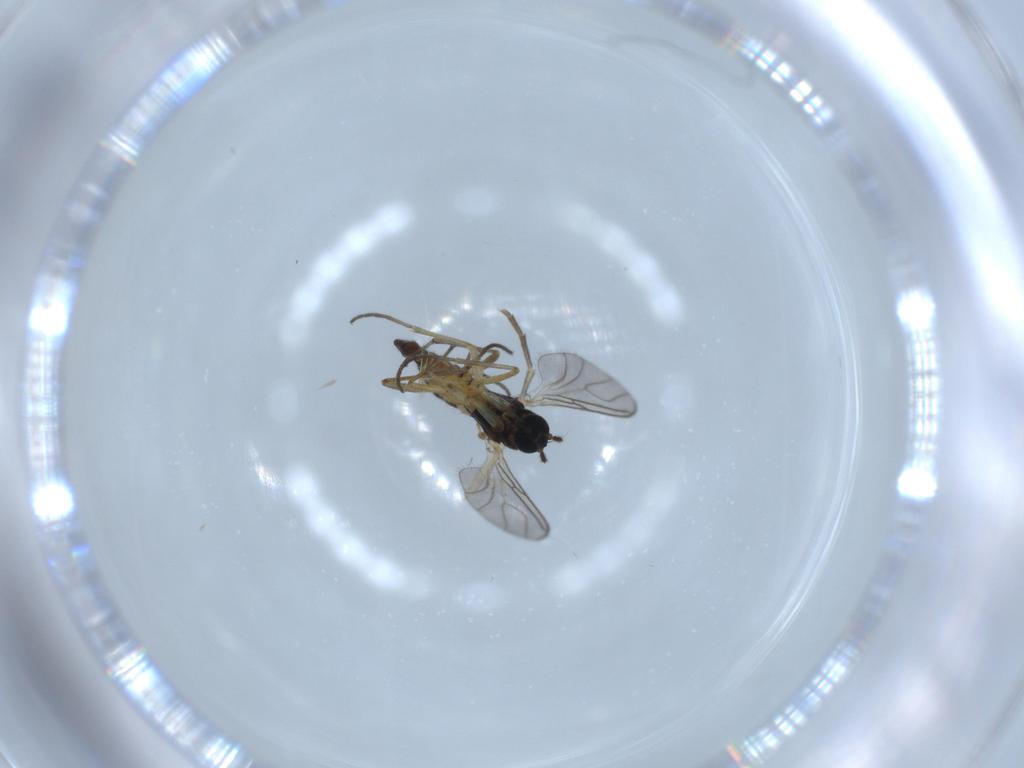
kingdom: Animalia
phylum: Arthropoda
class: Insecta
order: Diptera
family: Sciaridae
